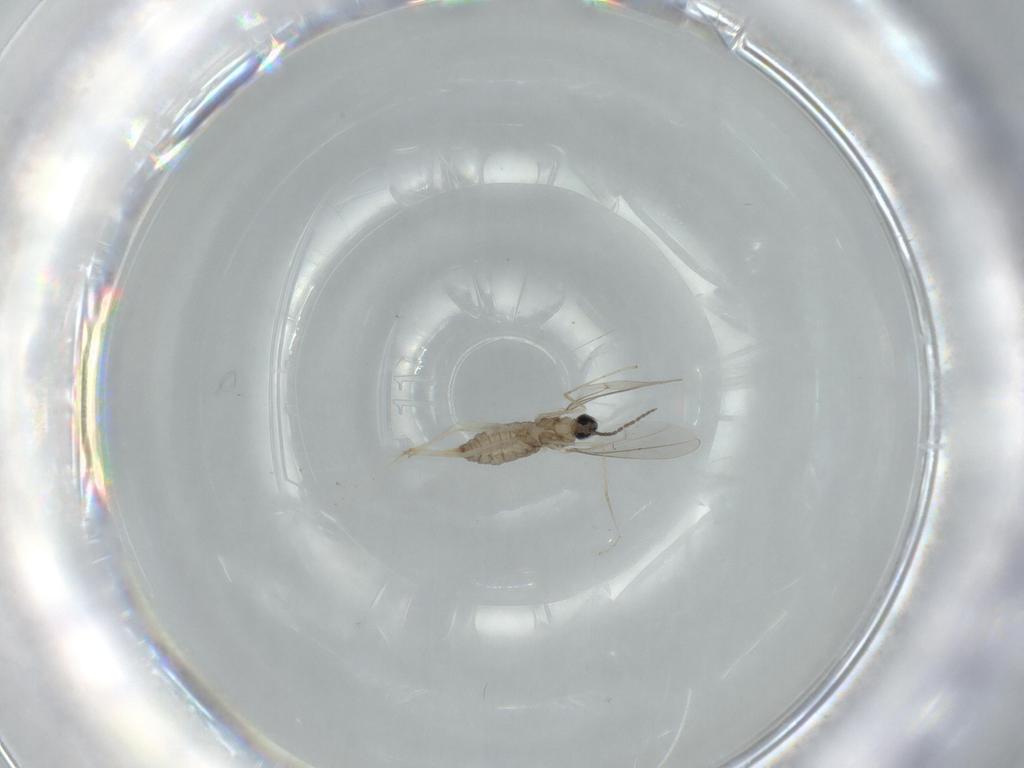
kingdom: Animalia
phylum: Arthropoda
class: Insecta
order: Diptera
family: Cecidomyiidae
